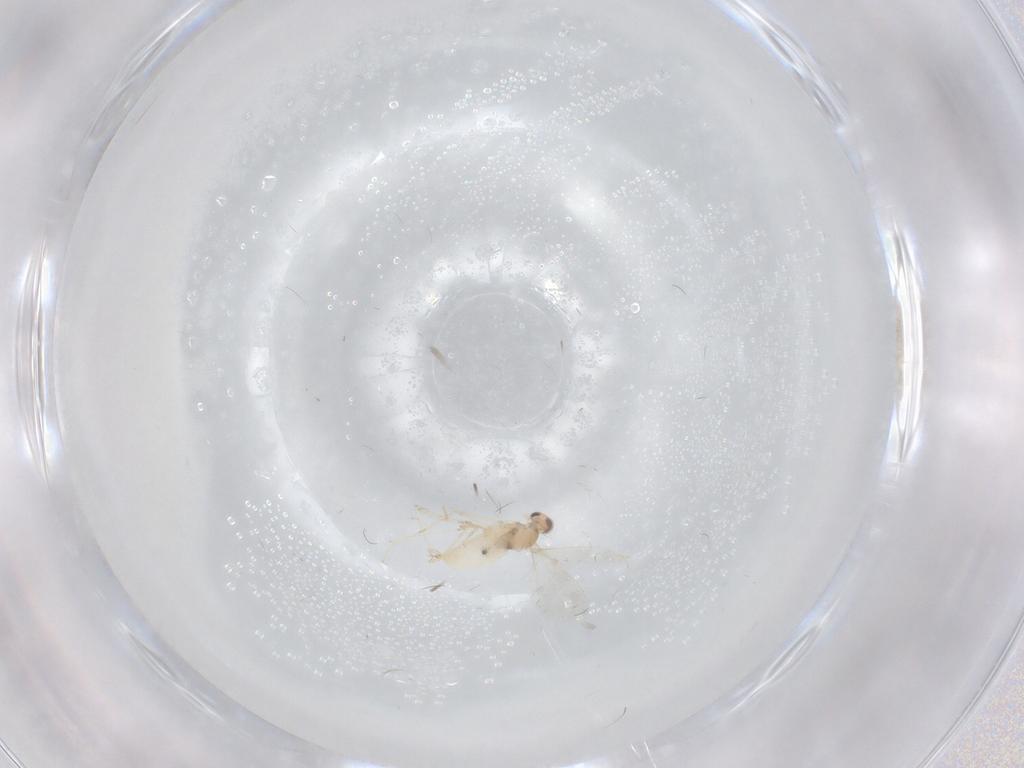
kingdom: Animalia
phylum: Arthropoda
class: Insecta
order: Diptera
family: Cecidomyiidae
